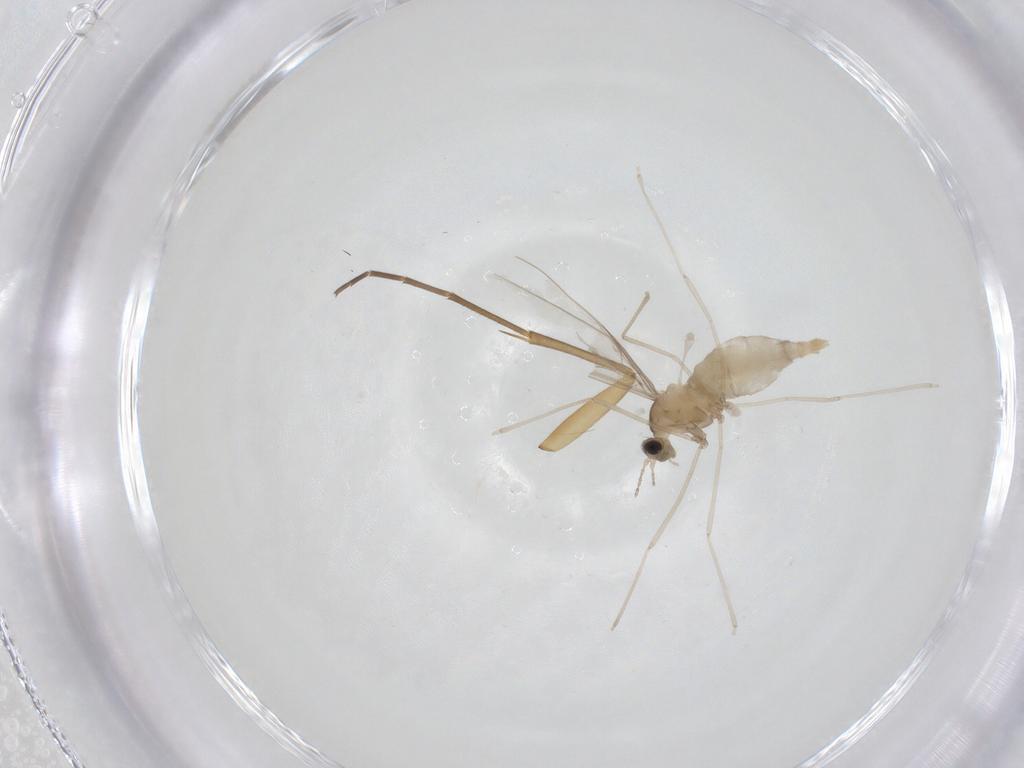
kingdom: Animalia
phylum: Arthropoda
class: Insecta
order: Diptera
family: Cecidomyiidae
